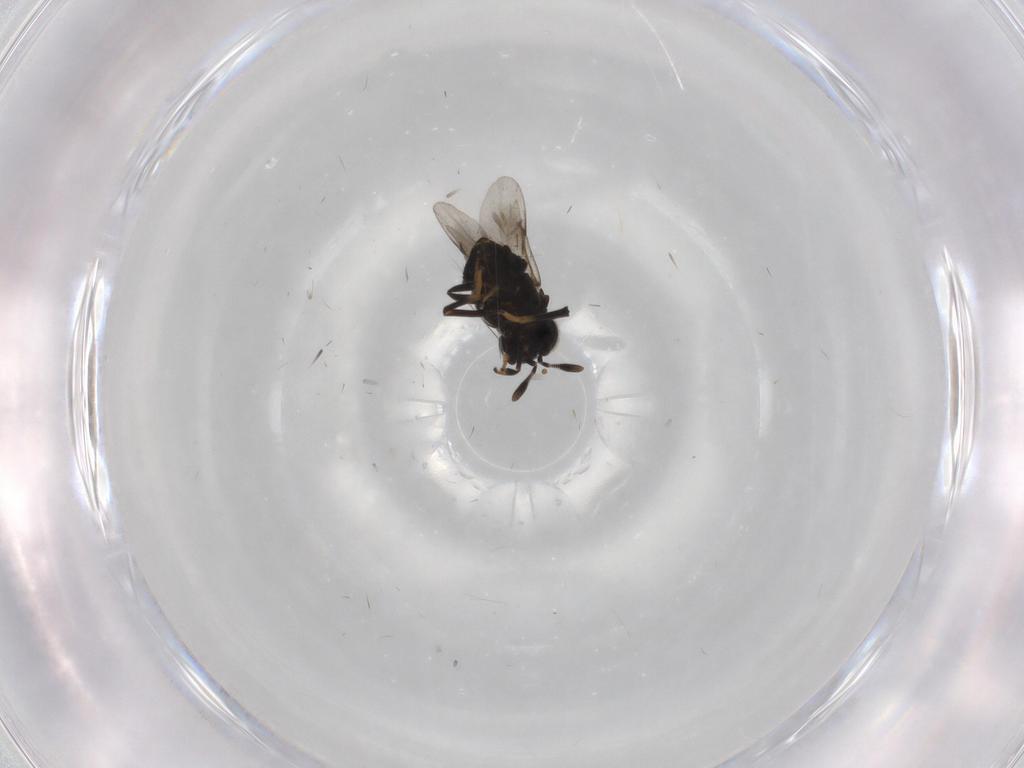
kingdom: Animalia
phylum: Arthropoda
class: Insecta
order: Hymenoptera
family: Encyrtidae
